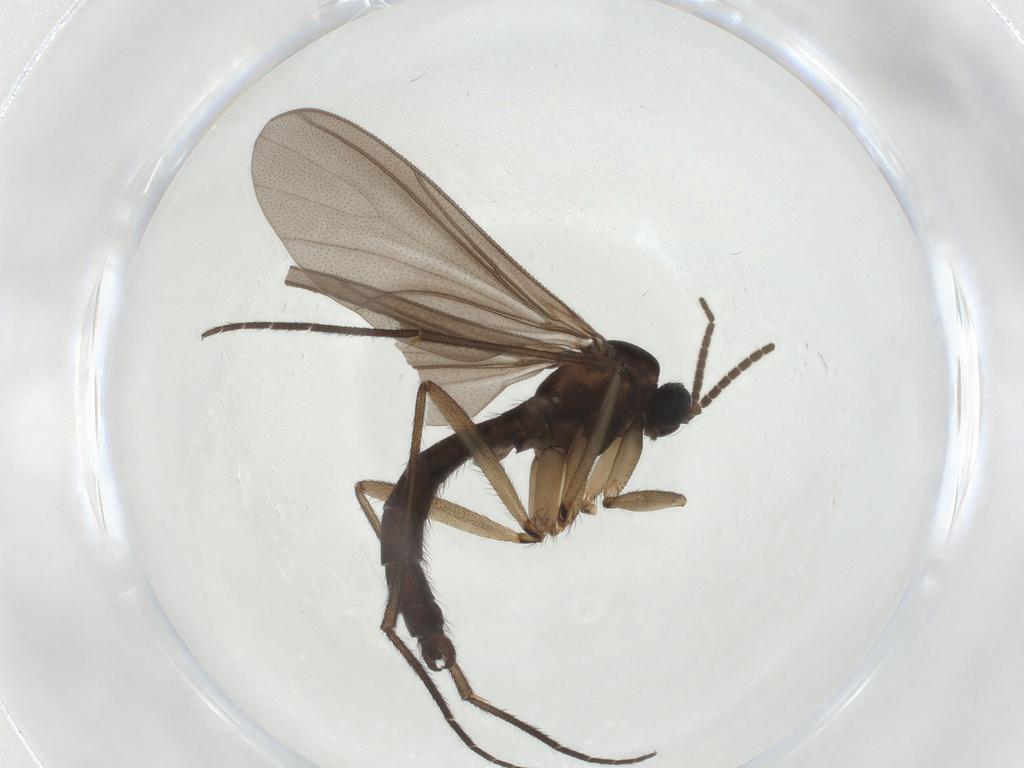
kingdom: Animalia
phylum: Arthropoda
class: Insecta
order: Diptera
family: Sciaridae
